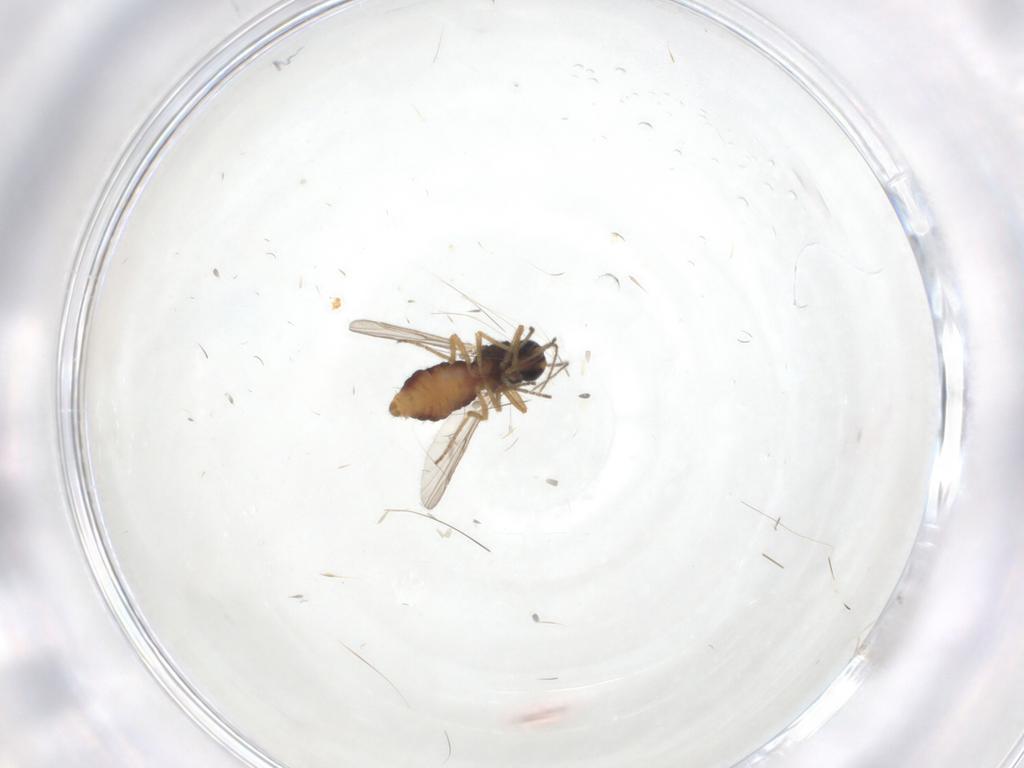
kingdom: Animalia
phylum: Arthropoda
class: Insecta
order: Diptera
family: Ceratopogonidae
